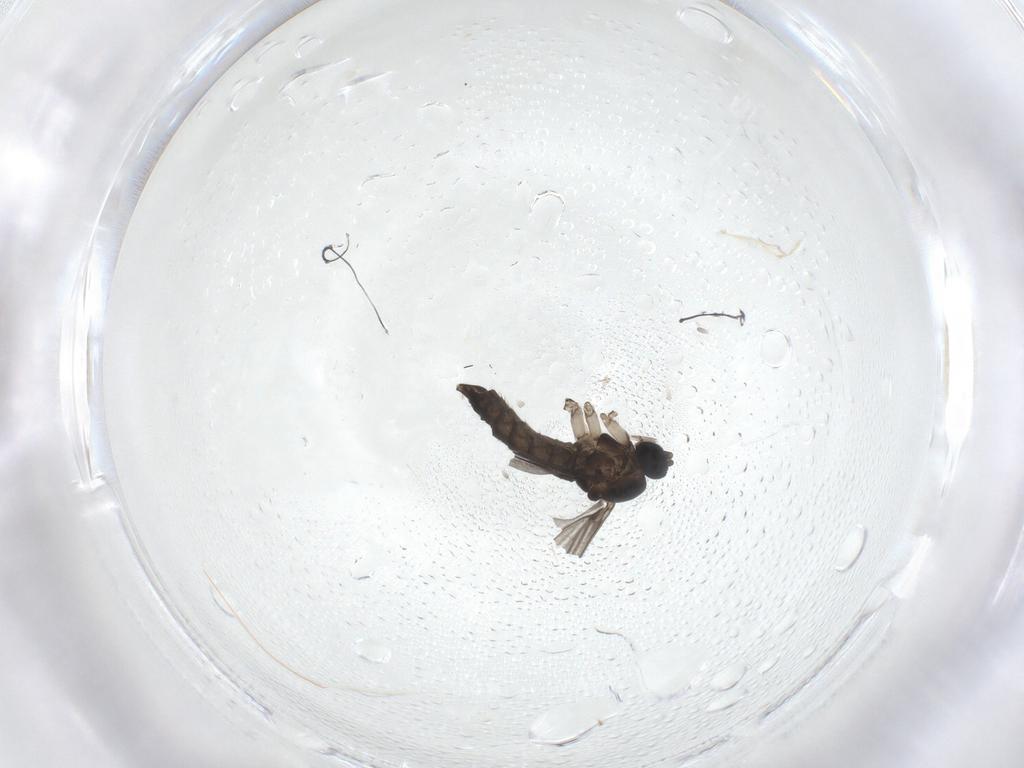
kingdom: Animalia
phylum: Arthropoda
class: Insecta
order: Diptera
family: Sciaridae
